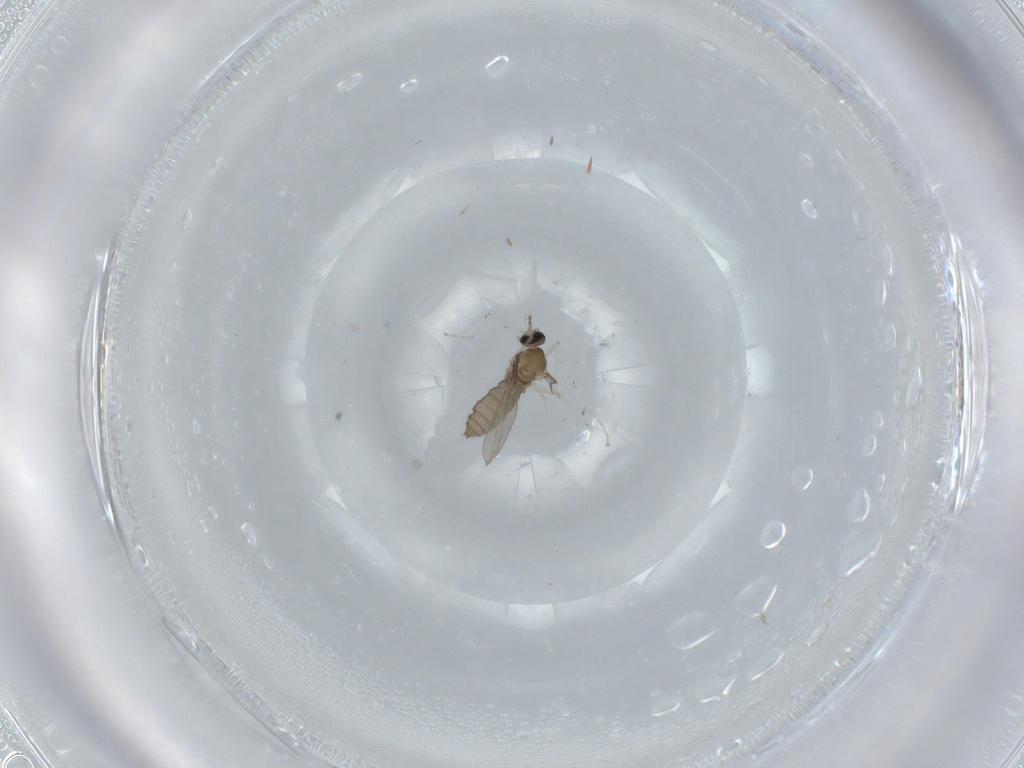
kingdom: Animalia
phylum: Arthropoda
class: Insecta
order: Diptera
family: Cecidomyiidae
